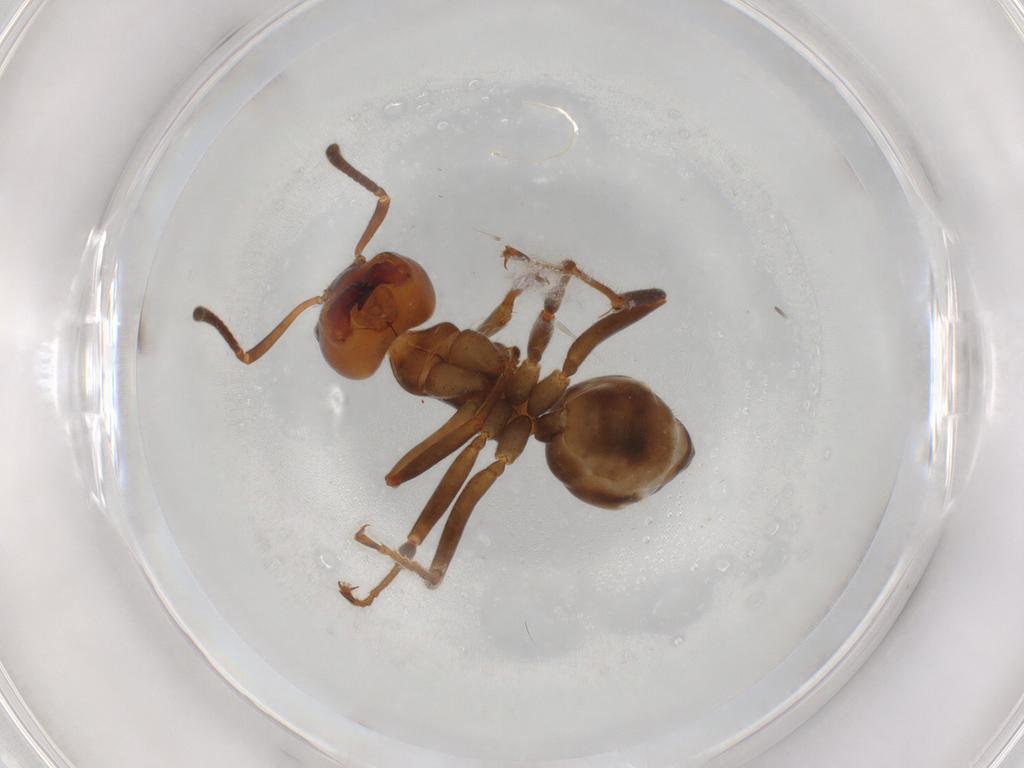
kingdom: Animalia
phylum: Arthropoda
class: Insecta
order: Hymenoptera
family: Formicidae
